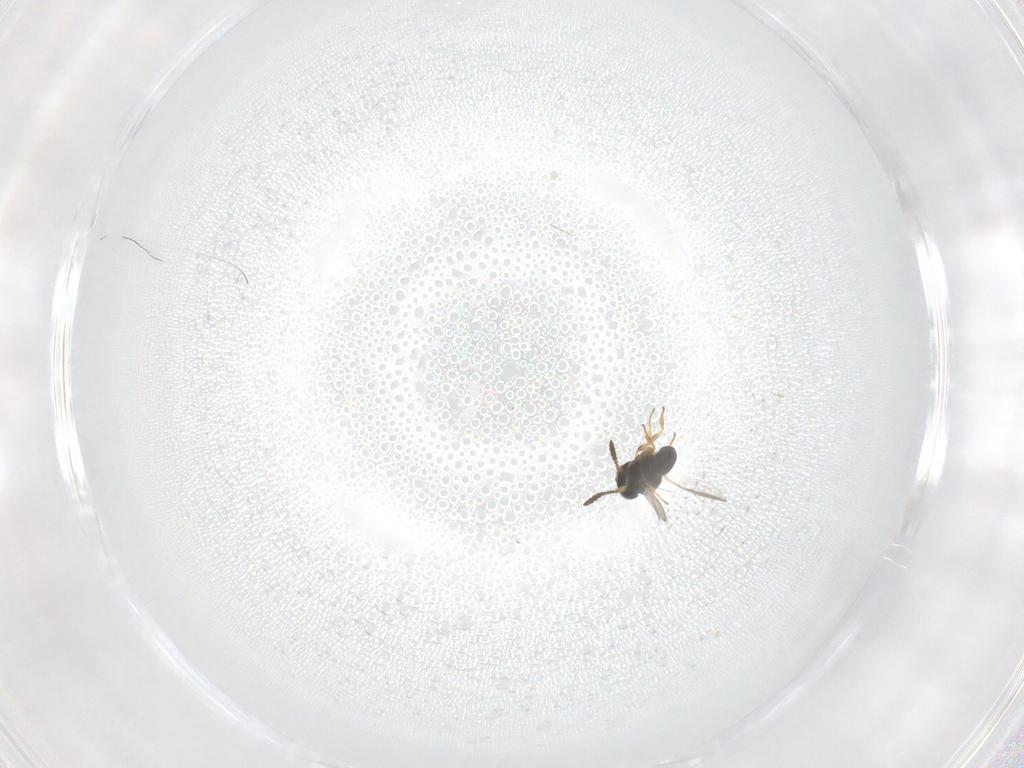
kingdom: Animalia
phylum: Arthropoda
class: Insecta
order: Hymenoptera
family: Scelionidae
